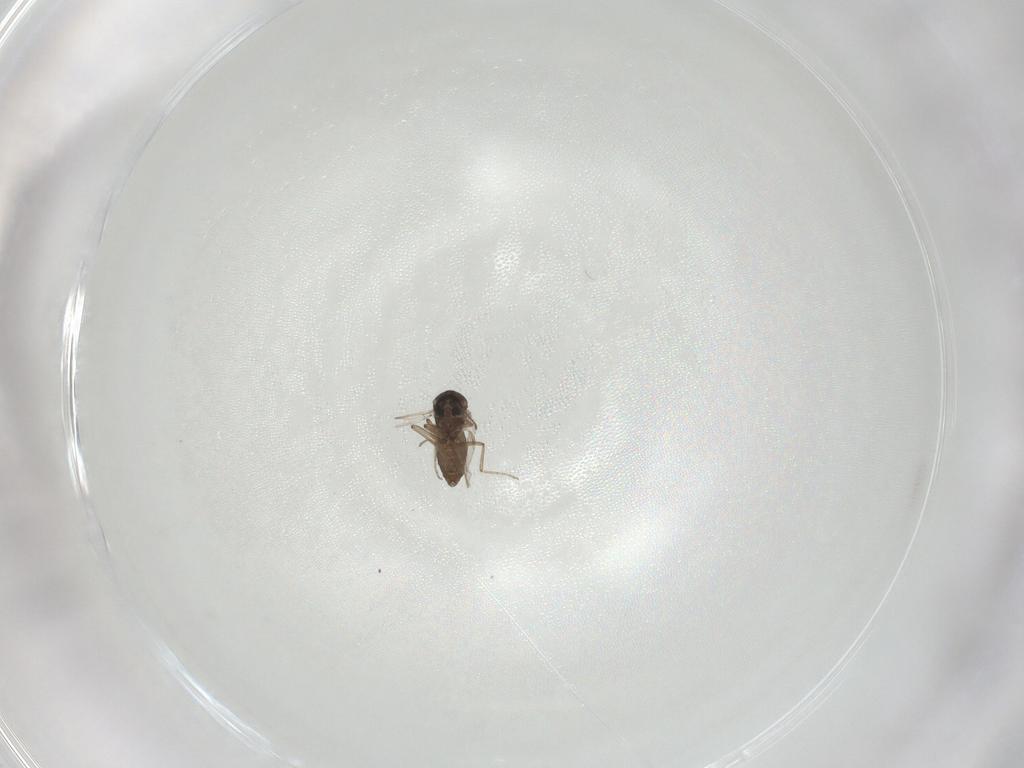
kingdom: Animalia
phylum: Arthropoda
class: Insecta
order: Diptera
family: Ceratopogonidae
